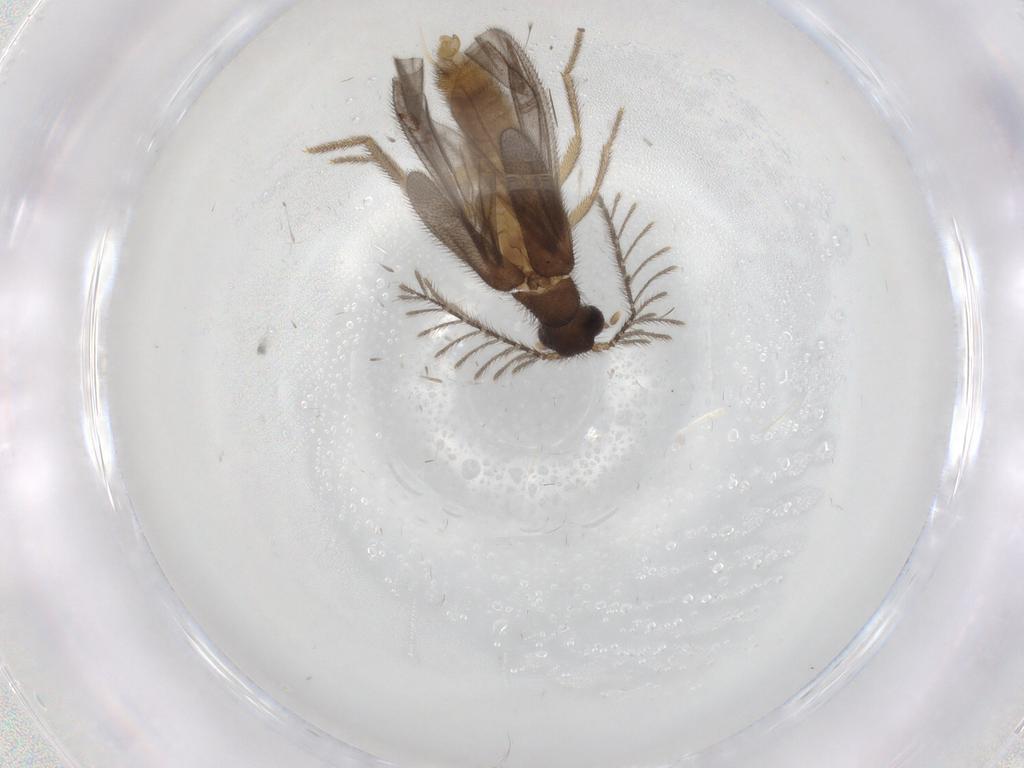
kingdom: Animalia
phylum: Arthropoda
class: Insecta
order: Coleoptera
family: Phengodidae
